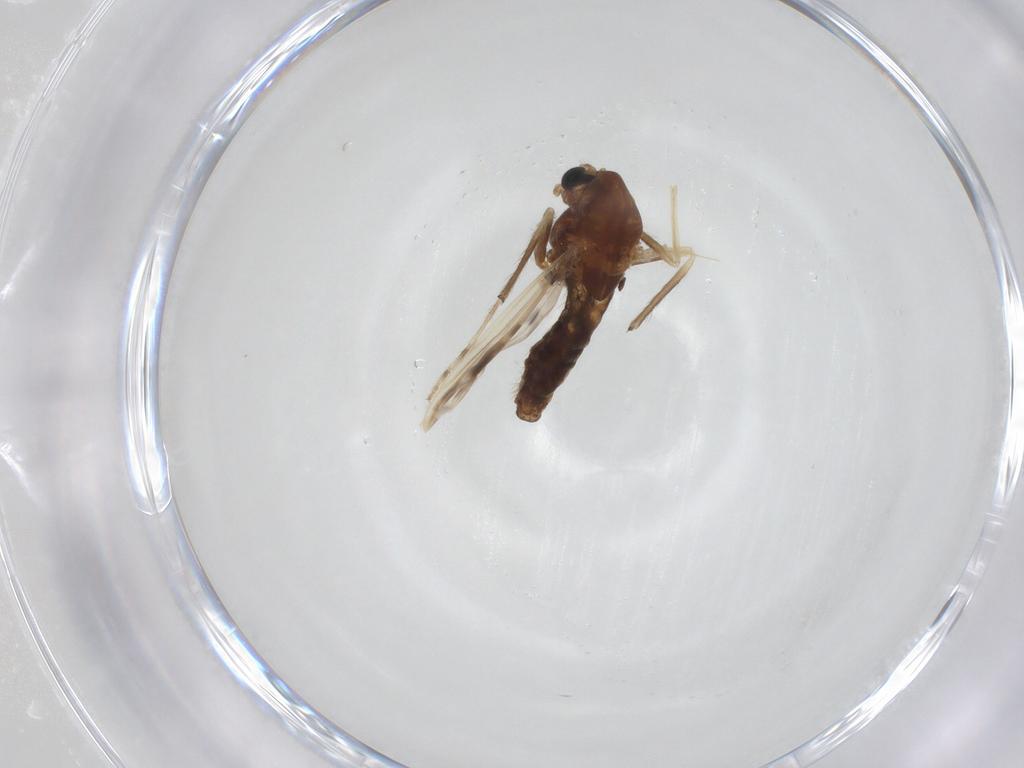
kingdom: Animalia
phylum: Arthropoda
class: Insecta
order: Diptera
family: Chironomidae
